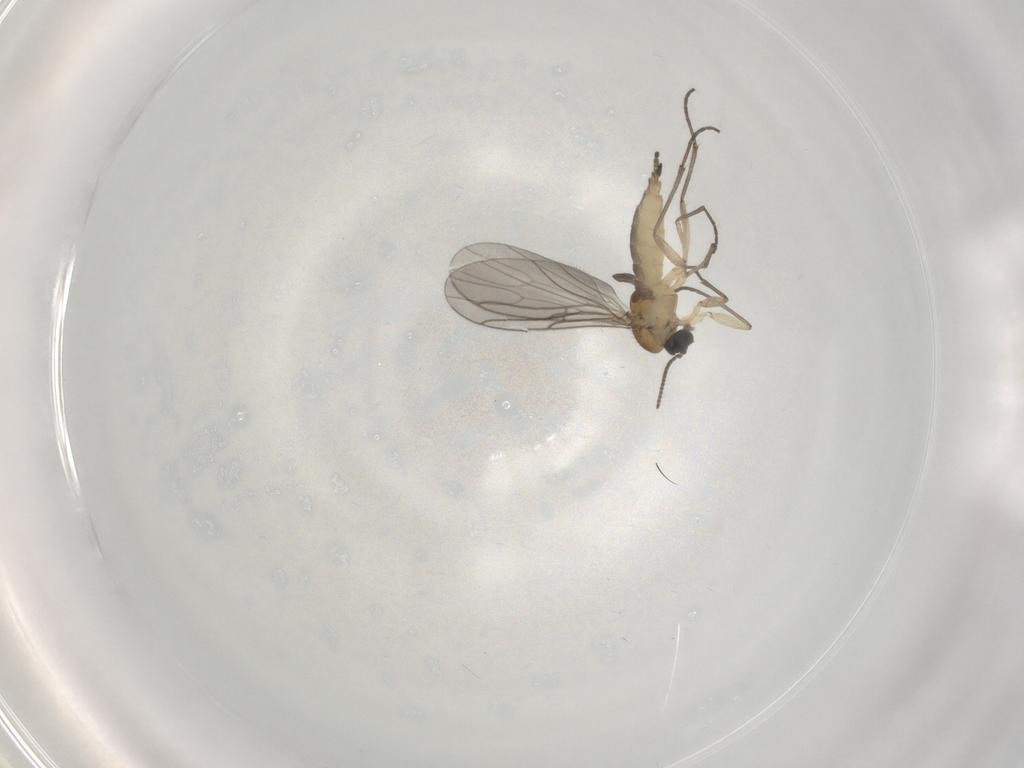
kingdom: Animalia
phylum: Arthropoda
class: Insecta
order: Diptera
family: Sciaridae
